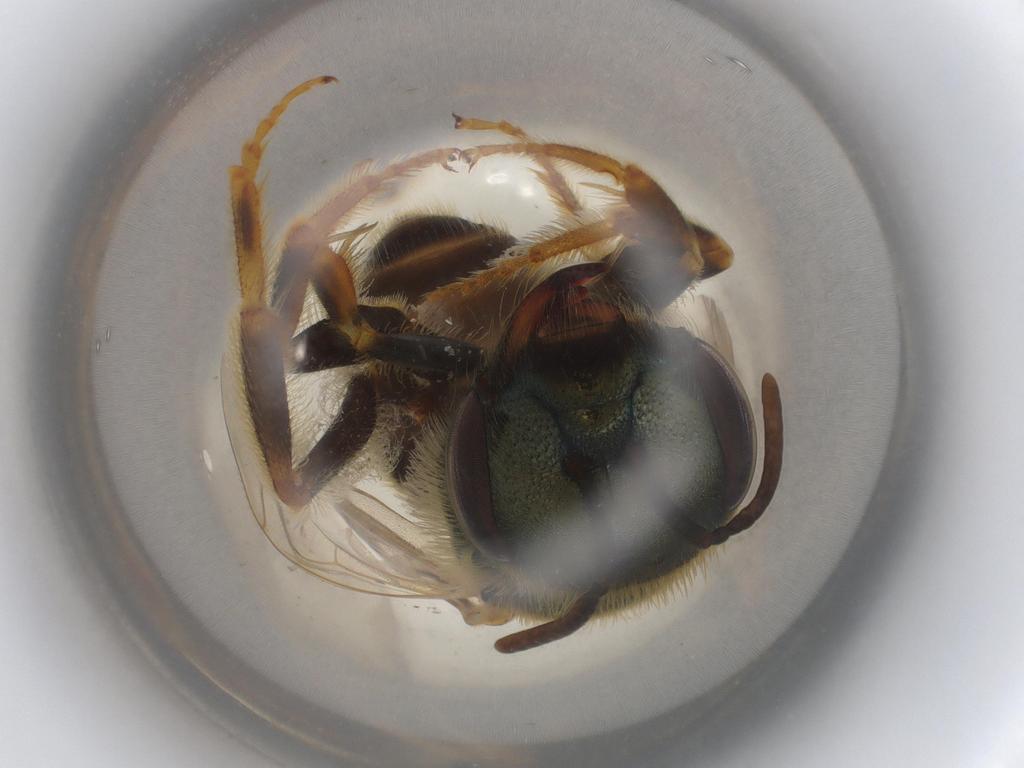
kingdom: Animalia
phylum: Arthropoda
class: Insecta
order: Hymenoptera
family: Halictidae
